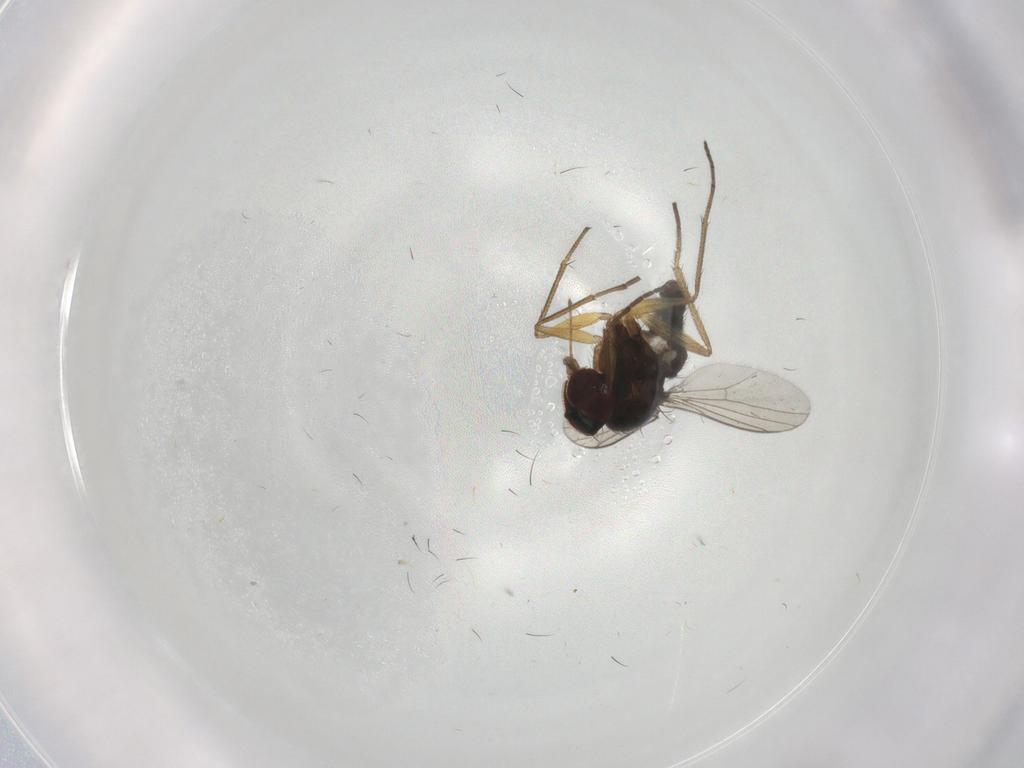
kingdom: Animalia
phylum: Arthropoda
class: Insecta
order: Diptera
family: Dolichopodidae
